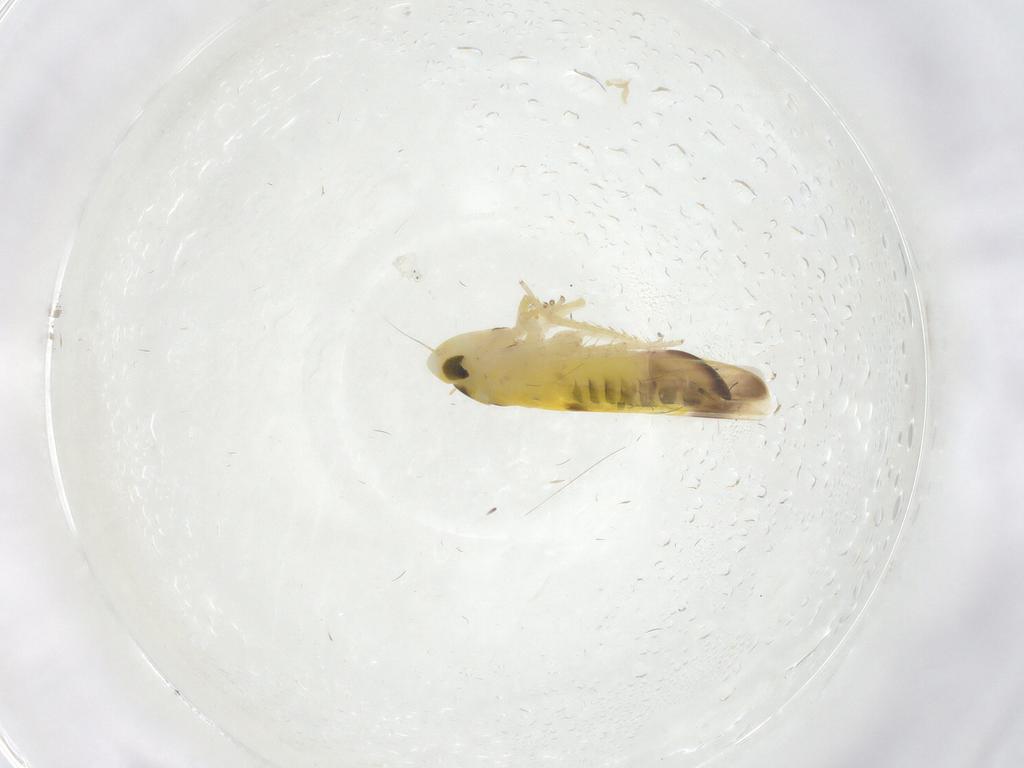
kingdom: Animalia
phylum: Arthropoda
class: Insecta
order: Hemiptera
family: Cicadellidae
